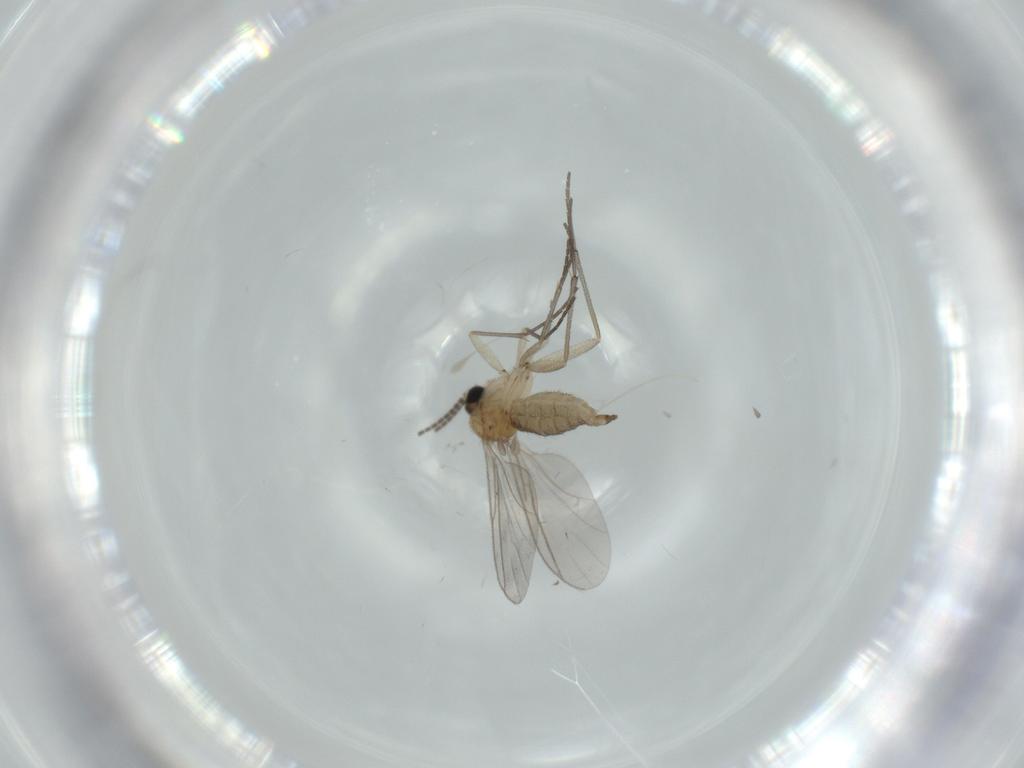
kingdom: Animalia
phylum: Arthropoda
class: Insecta
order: Diptera
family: Sciaridae
